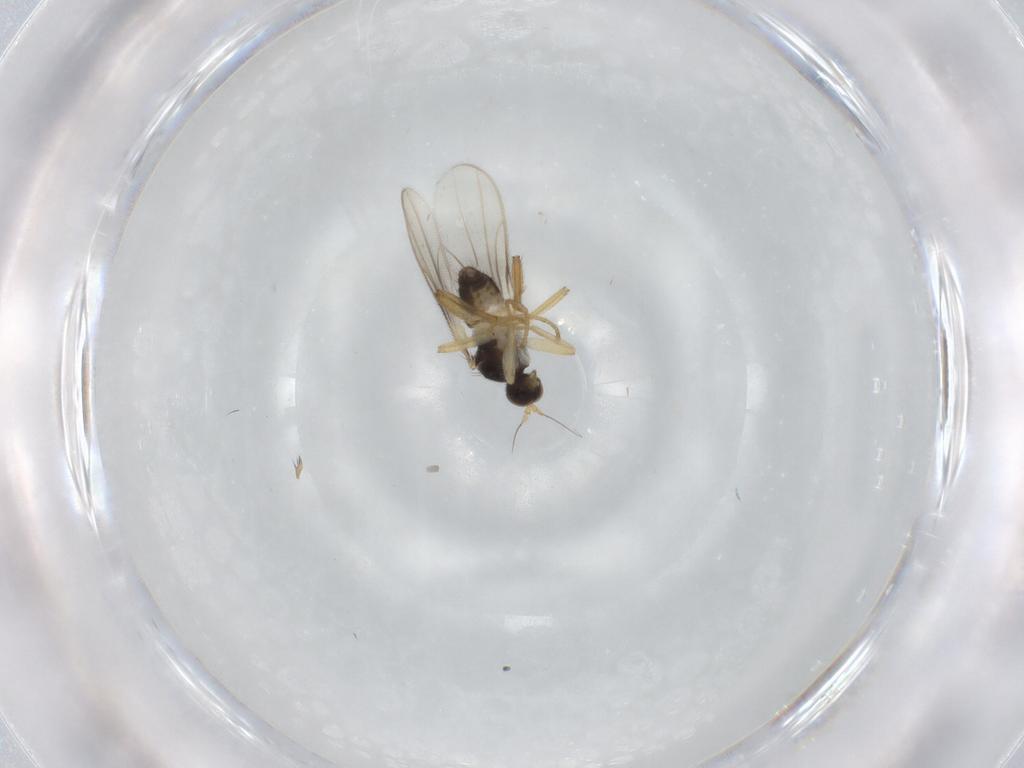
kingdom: Animalia
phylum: Arthropoda
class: Insecta
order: Diptera
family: Hybotidae
